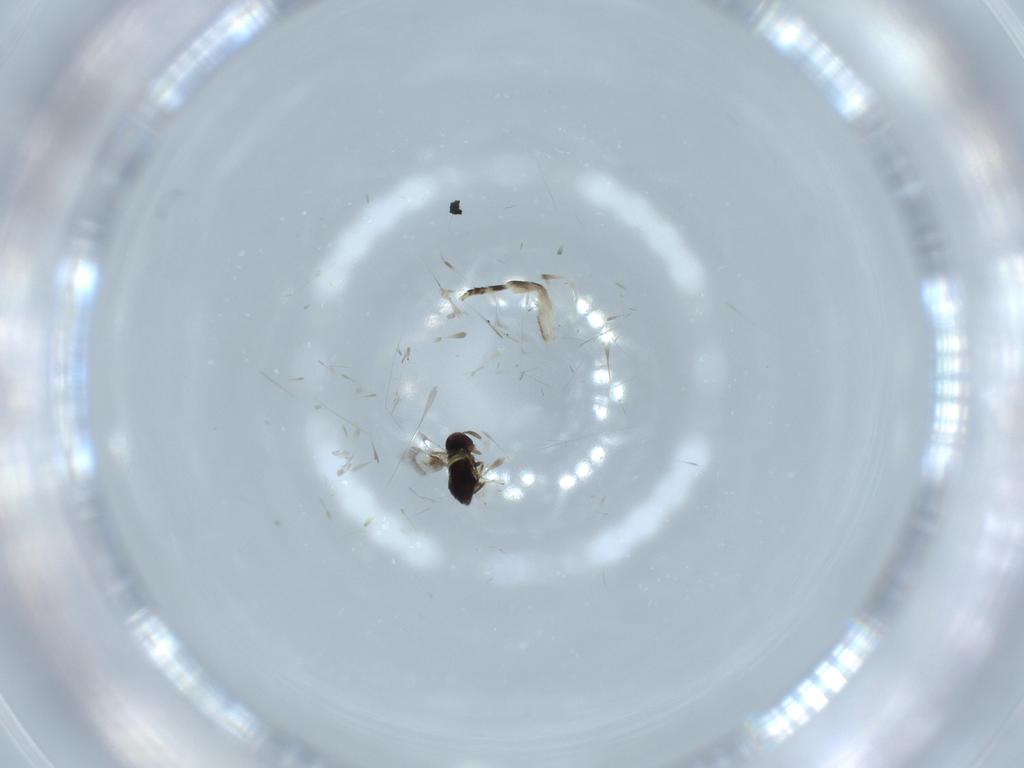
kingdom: Animalia
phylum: Arthropoda
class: Insecta
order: Hymenoptera
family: Signiphoridae
